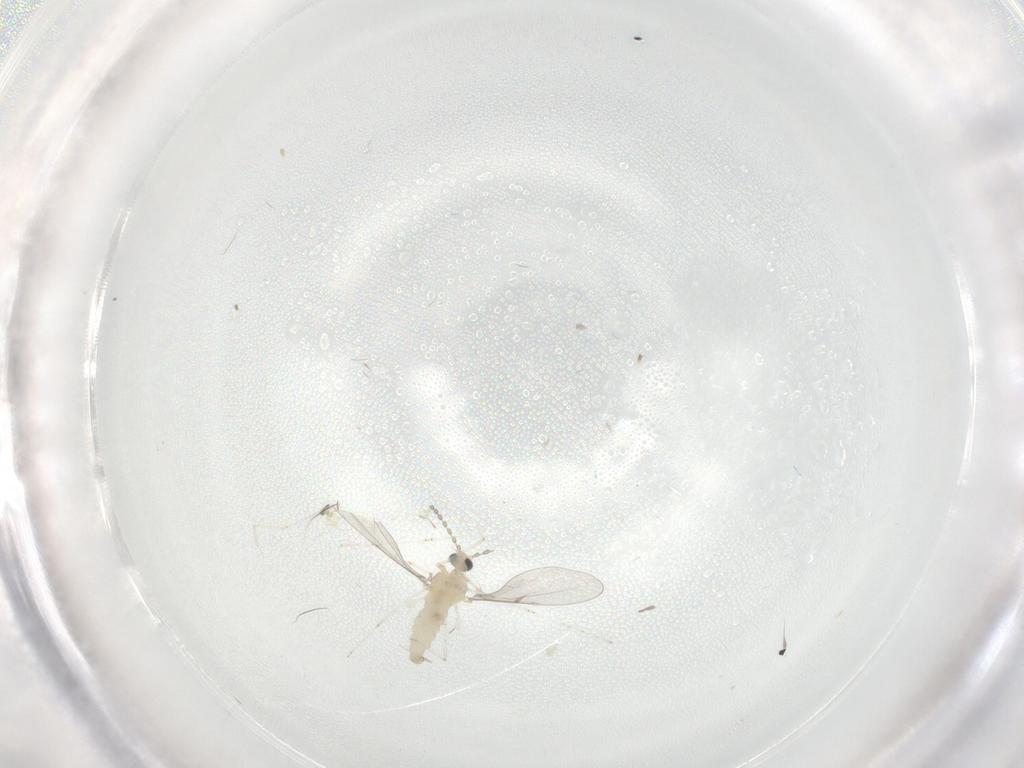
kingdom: Animalia
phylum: Arthropoda
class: Insecta
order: Diptera
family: Cecidomyiidae
